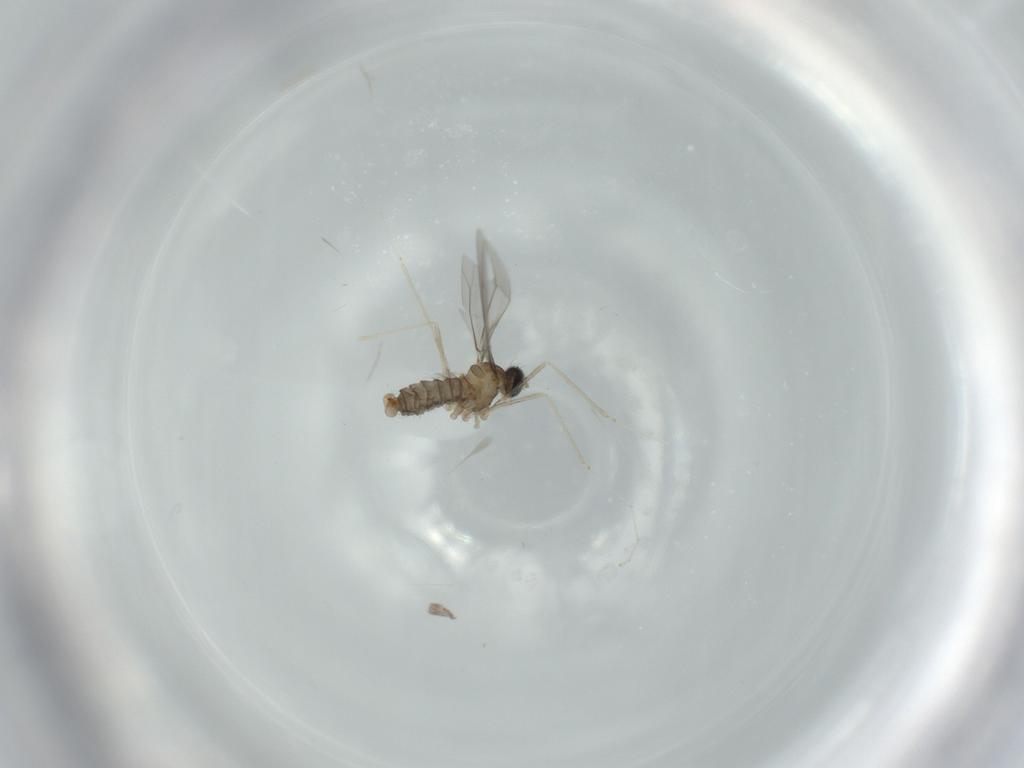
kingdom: Animalia
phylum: Arthropoda
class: Insecta
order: Diptera
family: Cecidomyiidae
